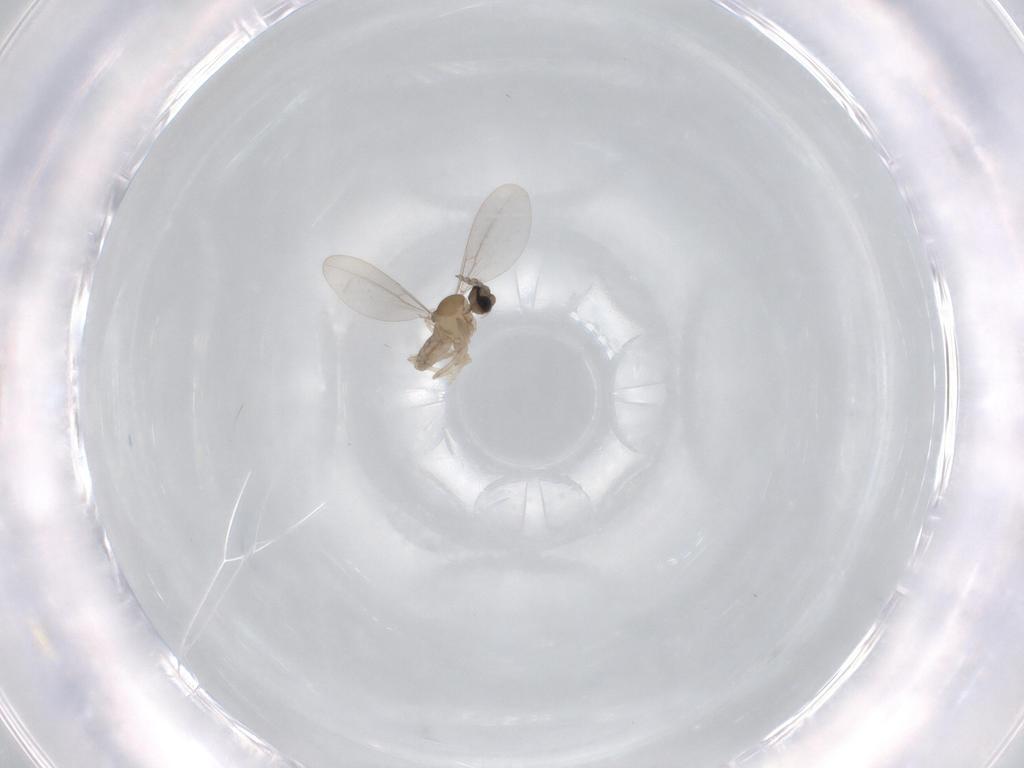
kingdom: Animalia
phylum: Arthropoda
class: Insecta
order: Diptera
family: Cecidomyiidae
